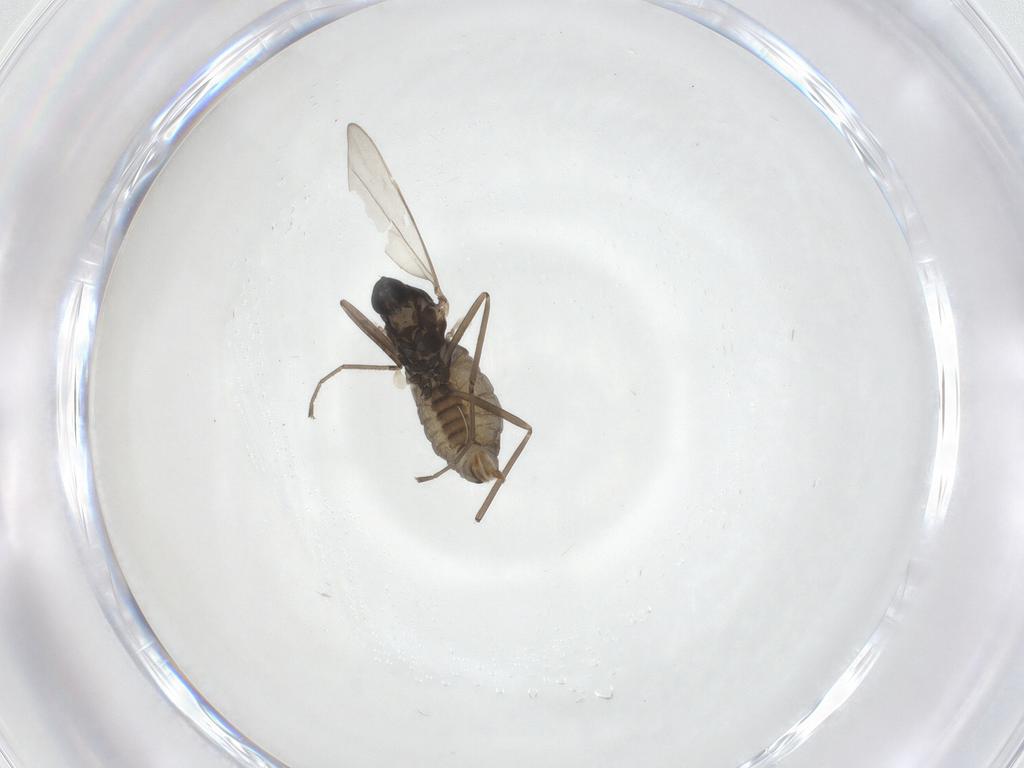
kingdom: Animalia
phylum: Arthropoda
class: Insecta
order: Diptera
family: Cecidomyiidae
